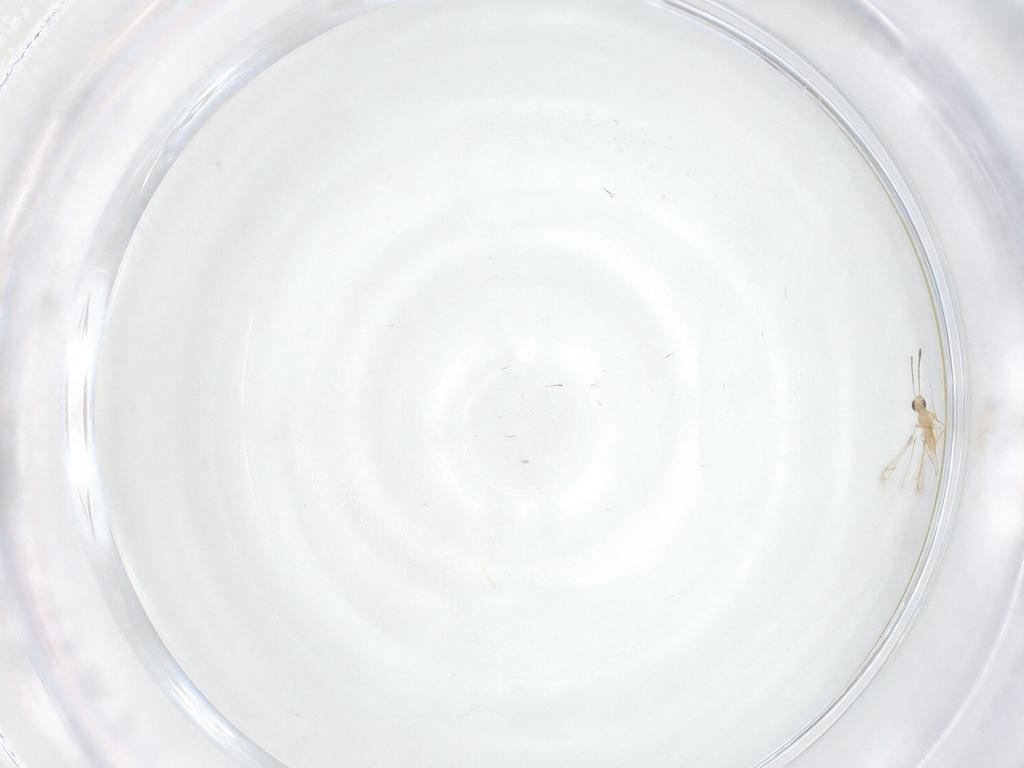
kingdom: Animalia
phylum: Arthropoda
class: Insecta
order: Hymenoptera
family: Mymaridae
